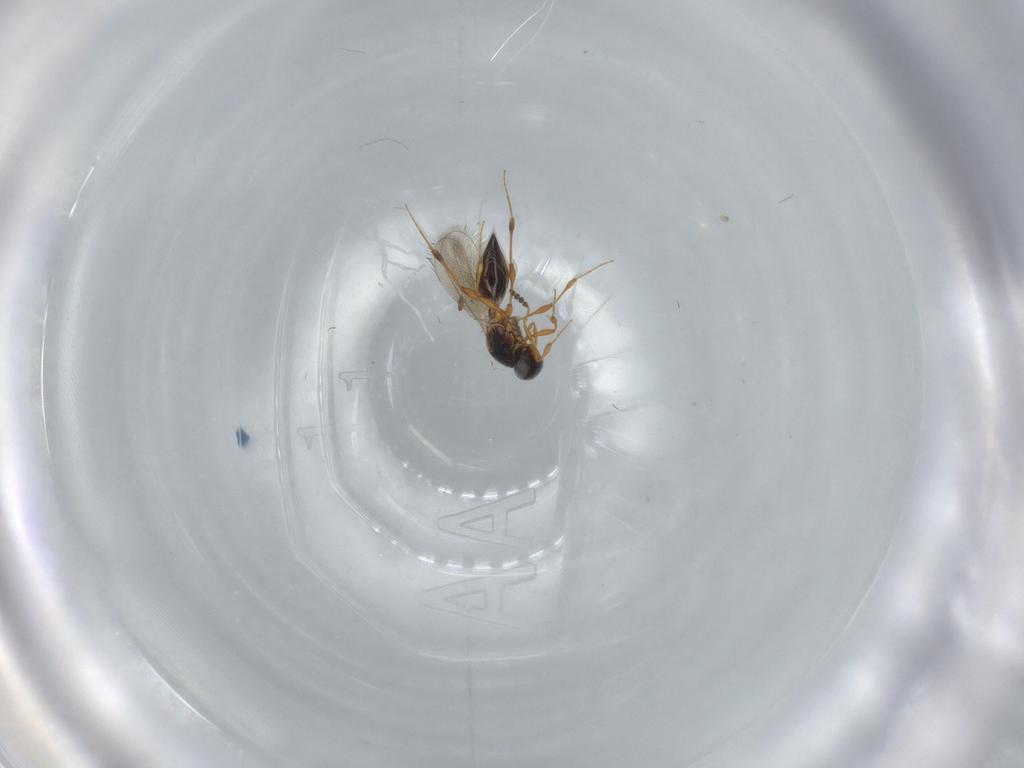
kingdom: Animalia
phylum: Arthropoda
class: Insecta
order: Hymenoptera
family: Platygastridae
